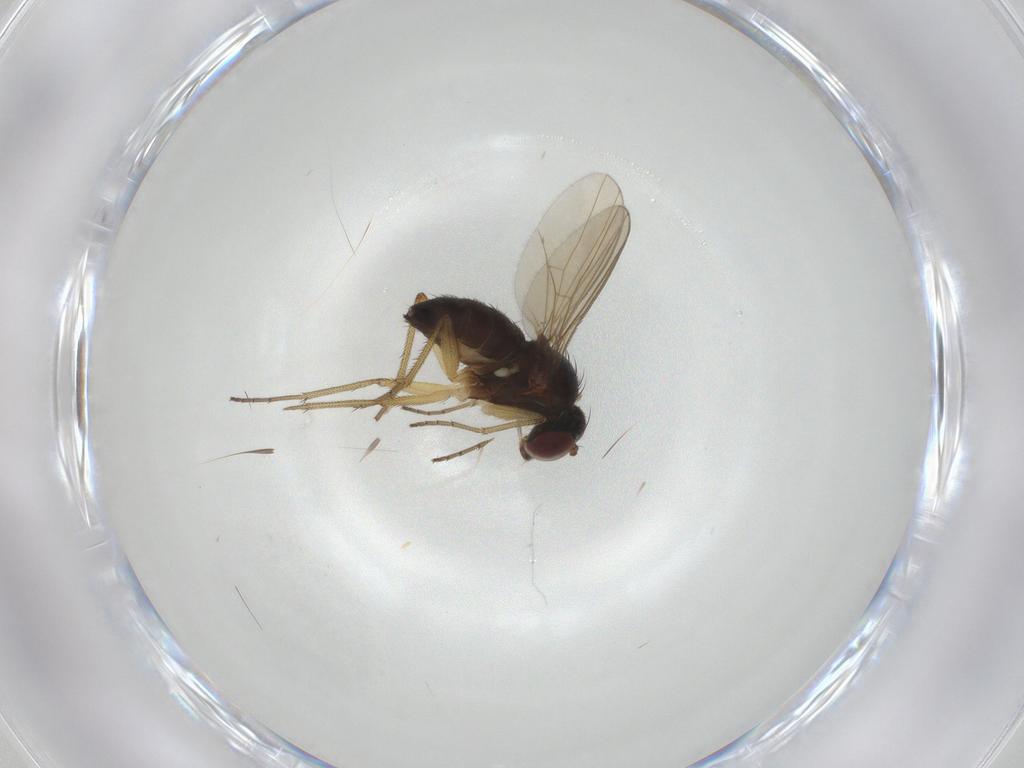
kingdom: Animalia
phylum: Arthropoda
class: Insecta
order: Diptera
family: Dolichopodidae
